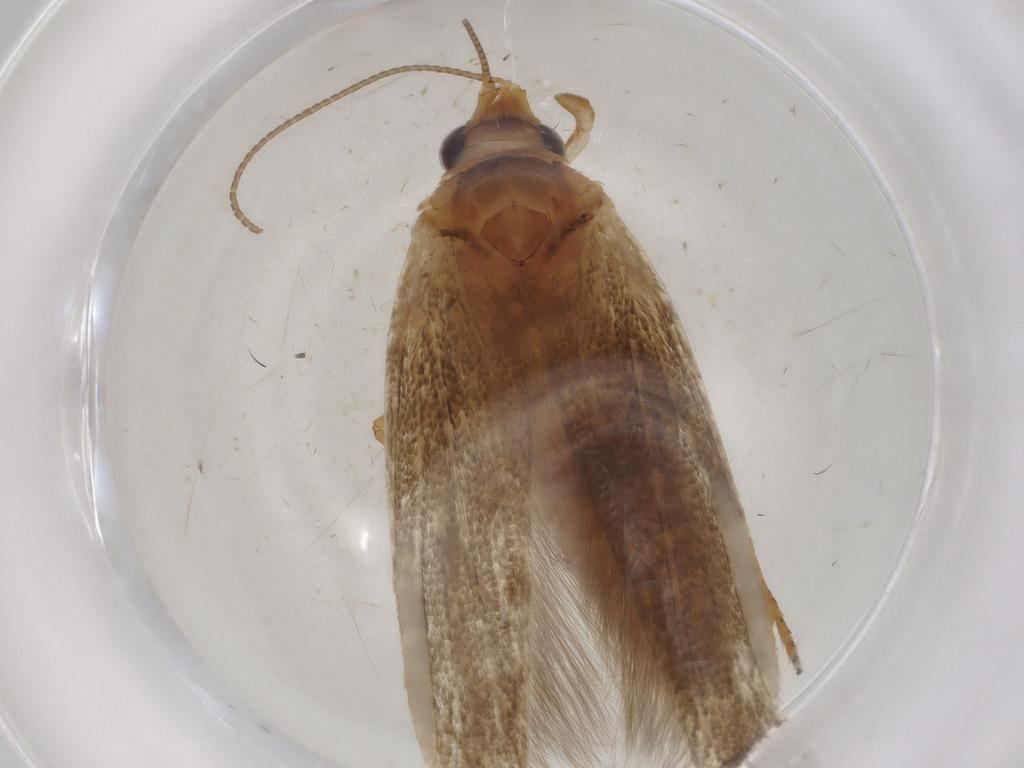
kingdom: Animalia
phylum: Arthropoda
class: Insecta
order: Lepidoptera
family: Coleophoridae
